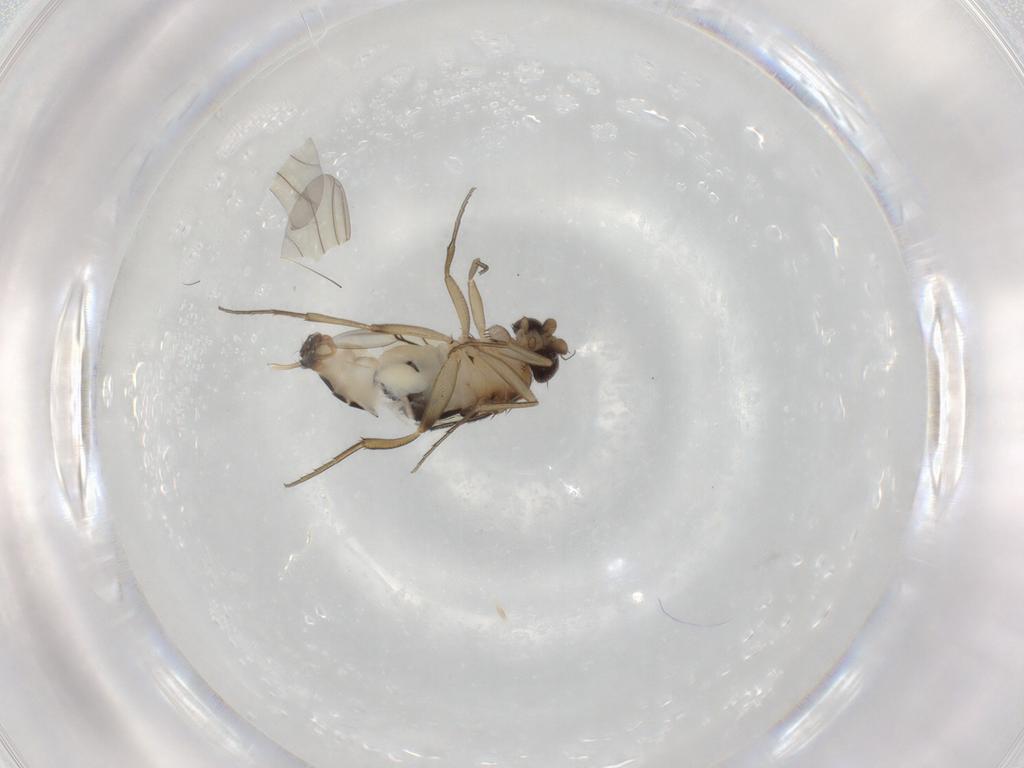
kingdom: Animalia
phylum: Arthropoda
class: Insecta
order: Diptera
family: Phoridae
